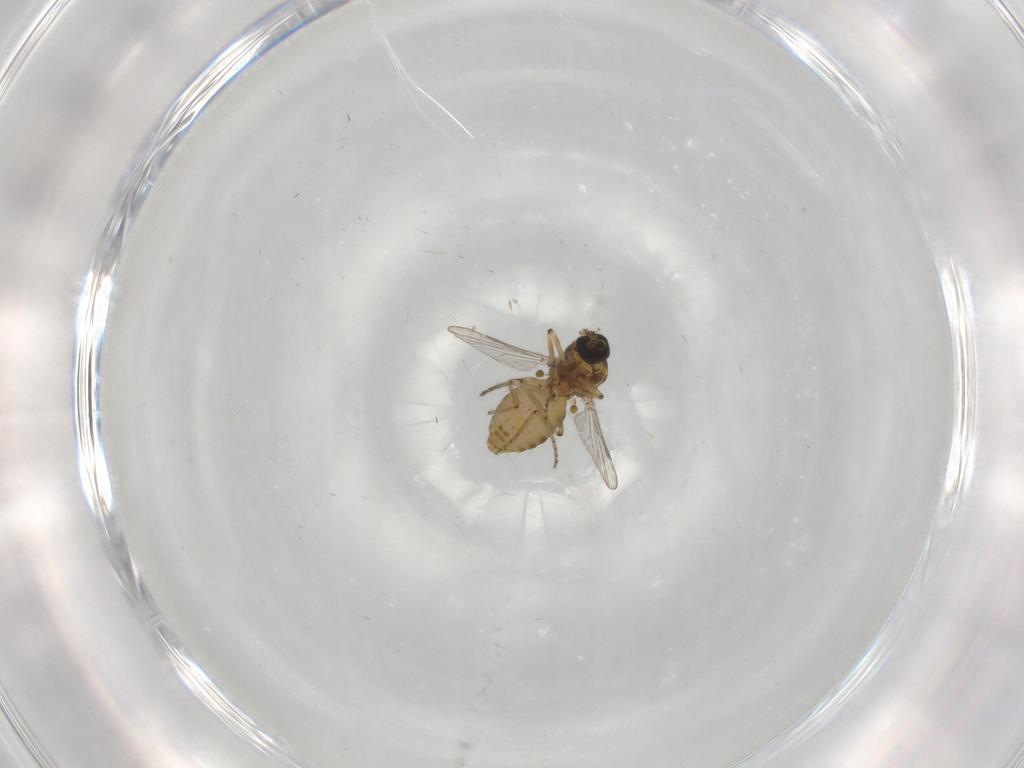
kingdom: Animalia
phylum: Arthropoda
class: Insecta
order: Diptera
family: Ceratopogonidae
